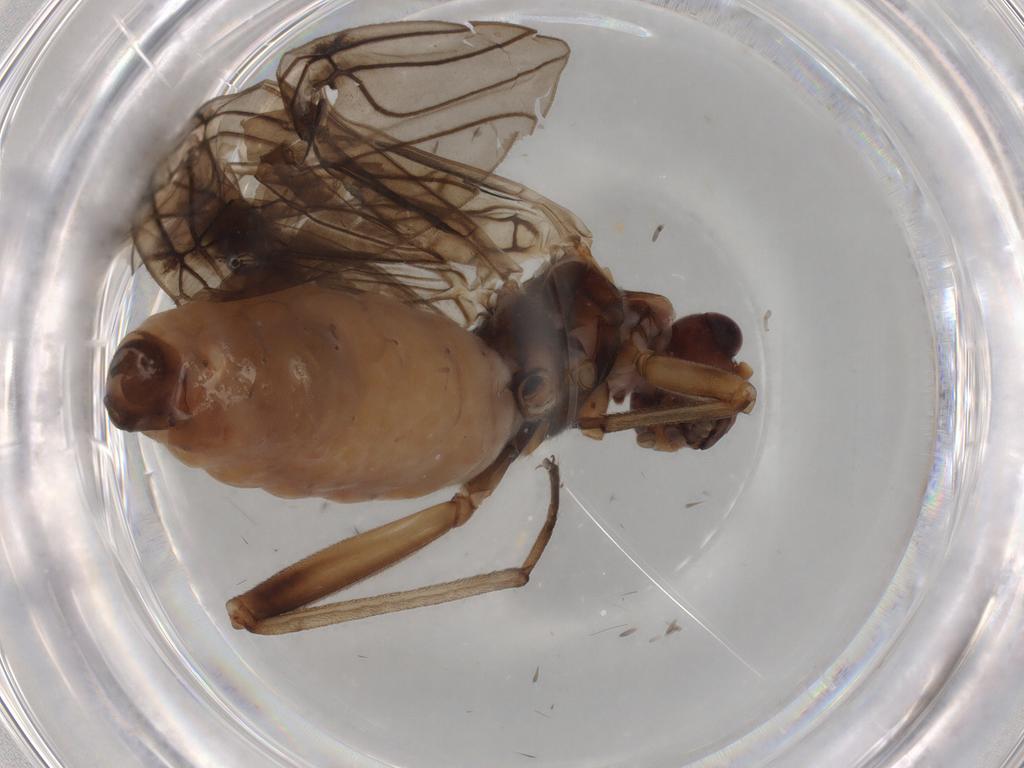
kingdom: Animalia
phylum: Arthropoda
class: Insecta
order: Plecoptera
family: Nemouridae
